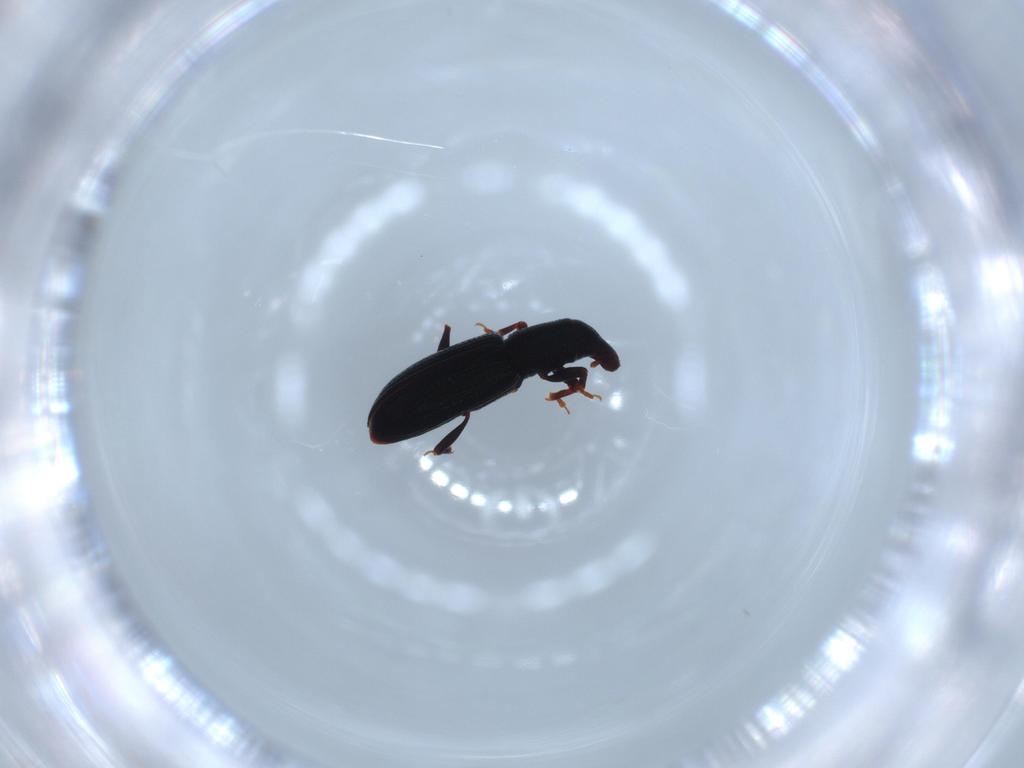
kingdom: Animalia
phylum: Arthropoda
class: Insecta
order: Coleoptera
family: Curculionidae
